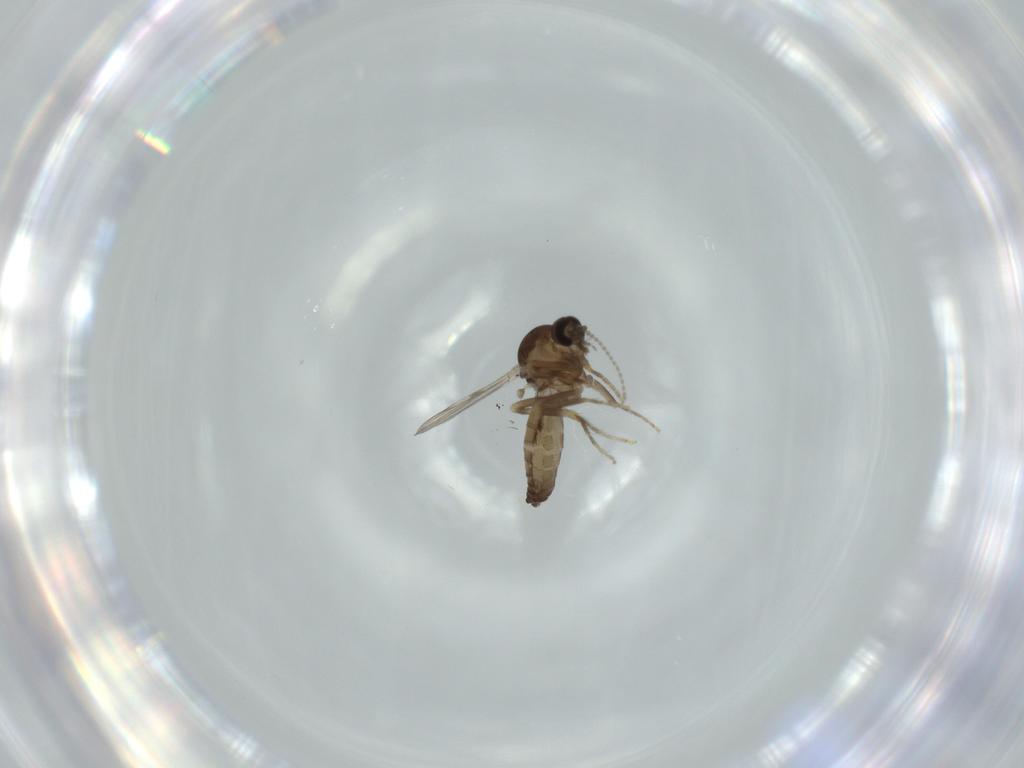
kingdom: Animalia
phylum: Arthropoda
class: Insecta
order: Diptera
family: Ceratopogonidae
